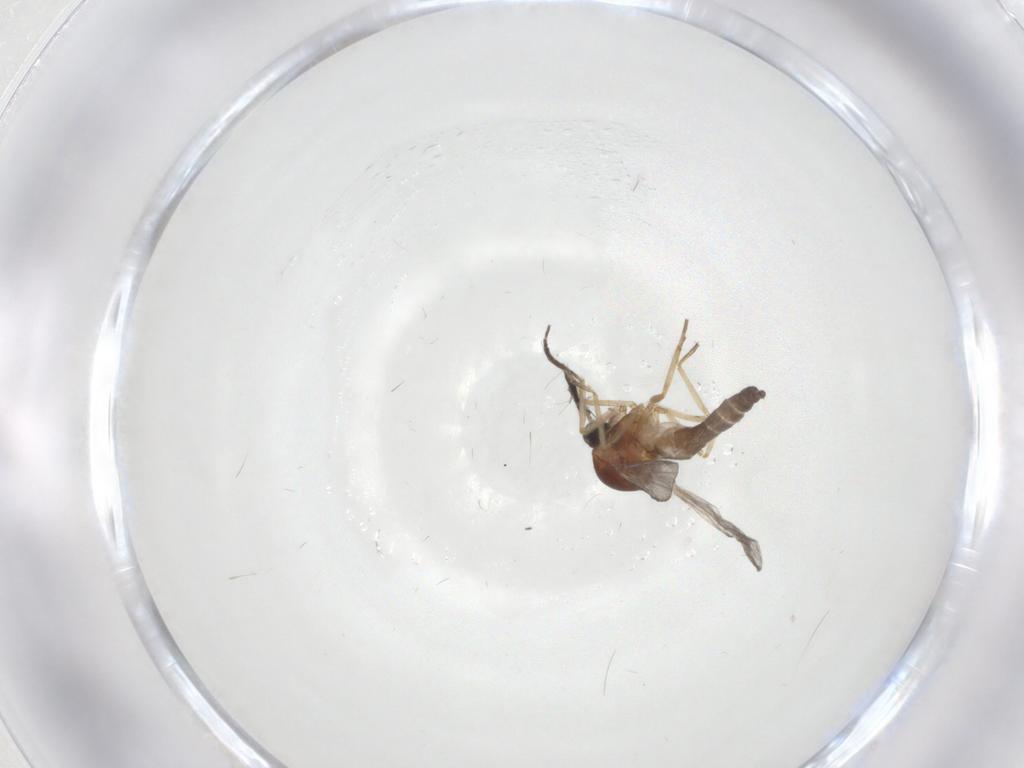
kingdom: Animalia
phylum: Arthropoda
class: Insecta
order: Diptera
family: Ceratopogonidae
